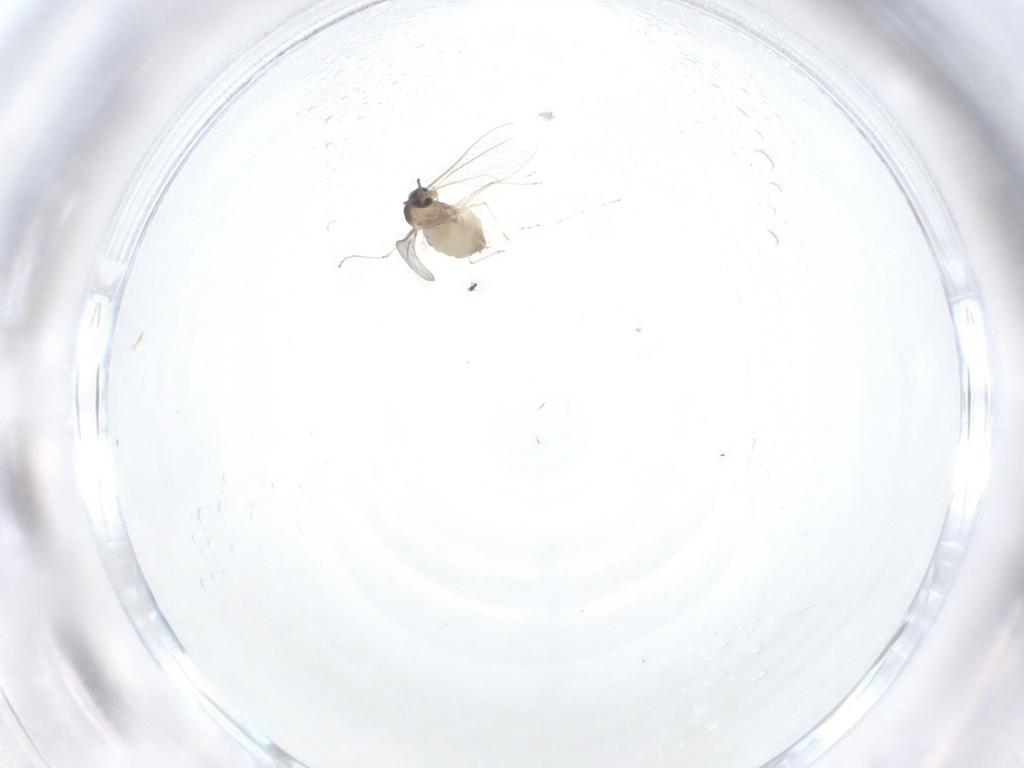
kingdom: Animalia
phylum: Arthropoda
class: Insecta
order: Diptera
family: Cecidomyiidae
